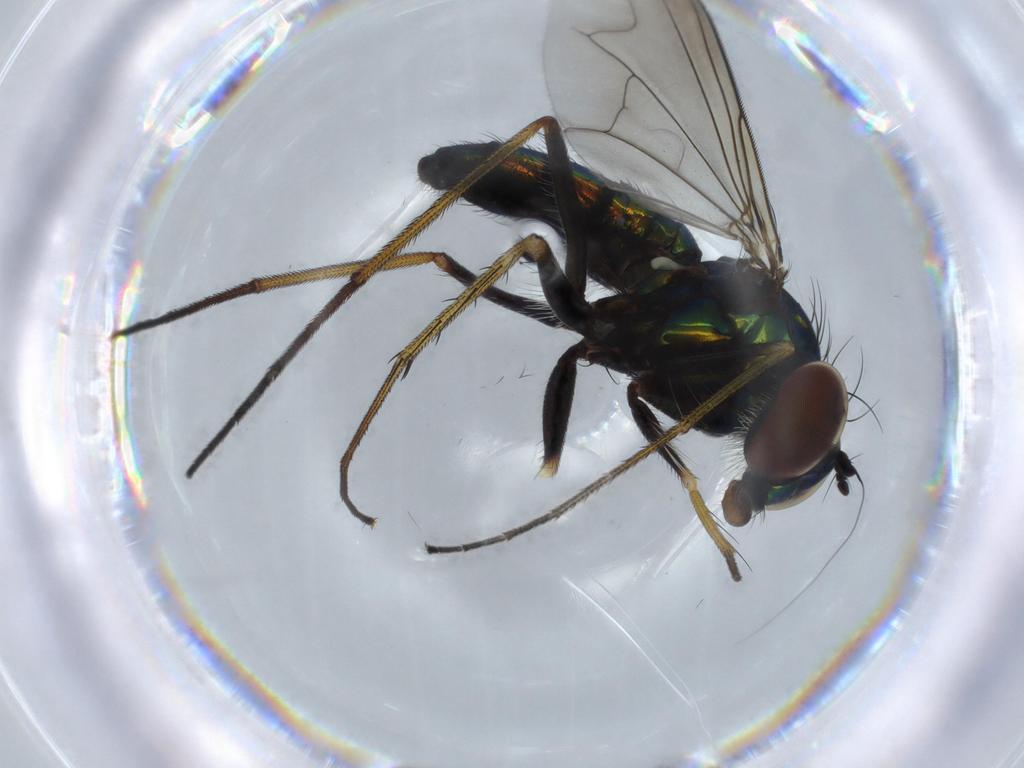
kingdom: Animalia
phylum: Arthropoda
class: Insecta
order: Diptera
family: Dolichopodidae
